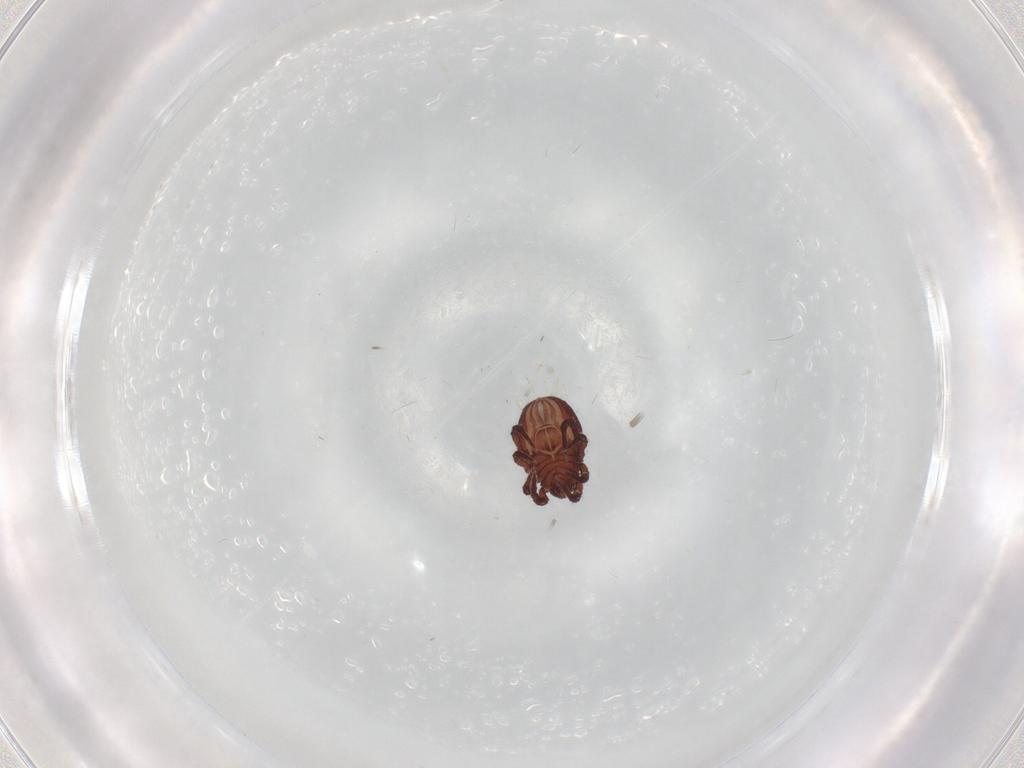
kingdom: Animalia
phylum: Arthropoda
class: Arachnida
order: Sarcoptiformes
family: Nothridae
